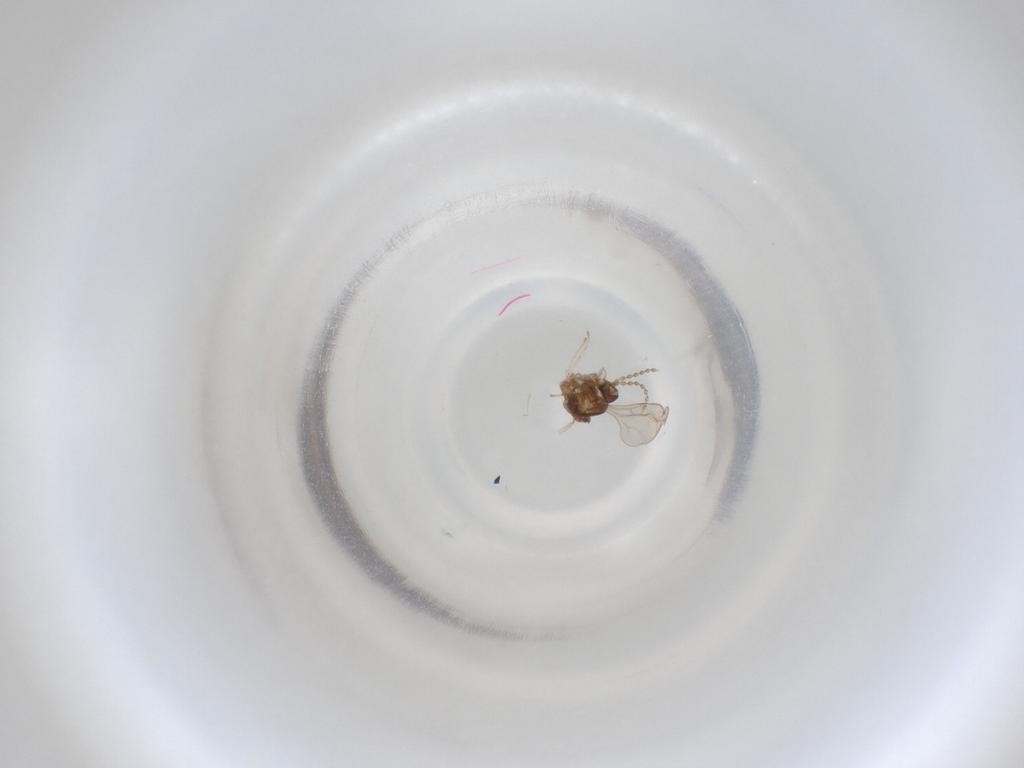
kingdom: Animalia
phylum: Arthropoda
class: Insecta
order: Diptera
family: Cecidomyiidae
